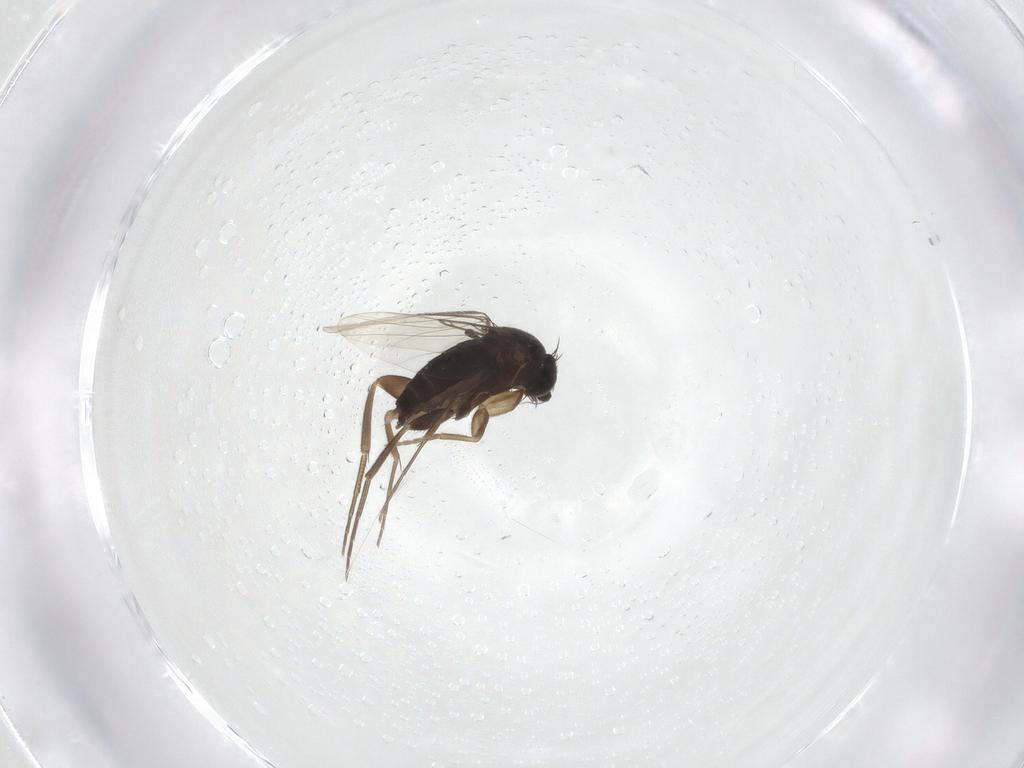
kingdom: Animalia
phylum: Arthropoda
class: Insecta
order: Diptera
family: Phoridae
